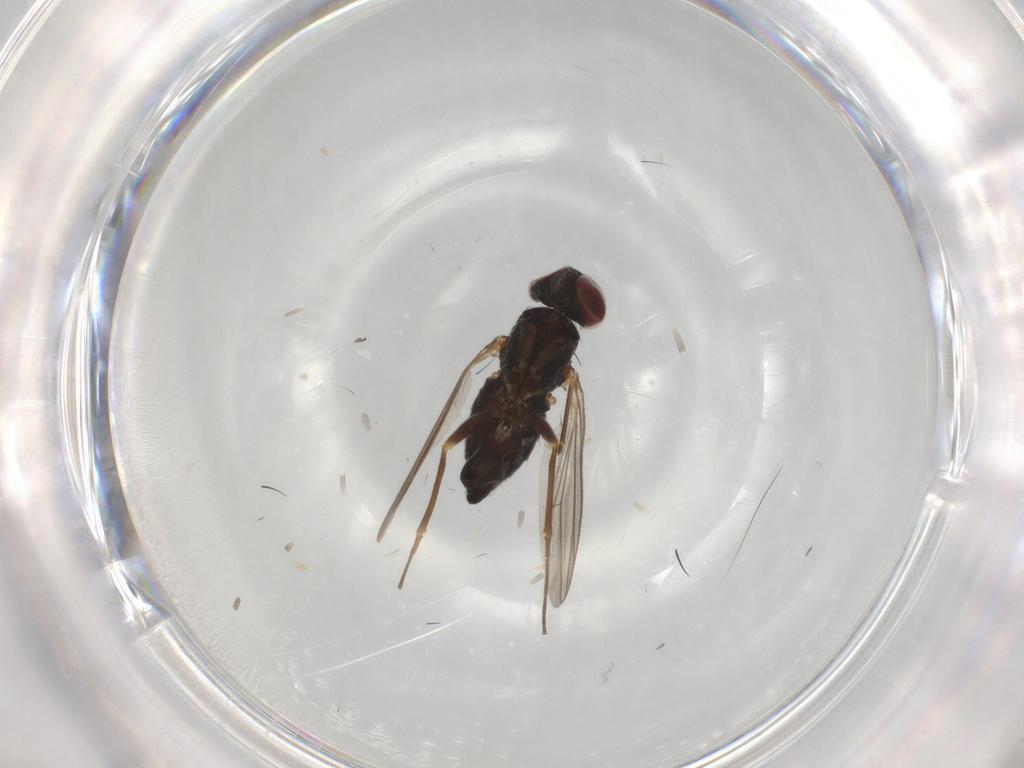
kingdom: Animalia
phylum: Arthropoda
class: Insecta
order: Diptera
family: Dolichopodidae
